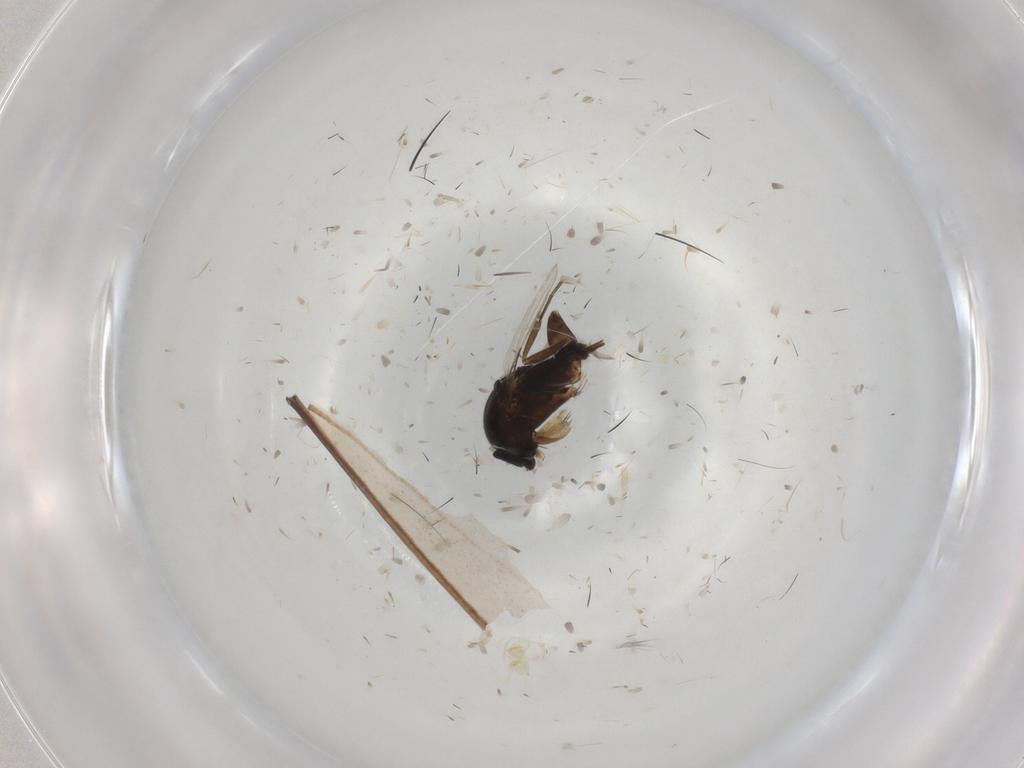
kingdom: Animalia
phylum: Arthropoda
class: Insecta
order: Diptera
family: Phoridae
